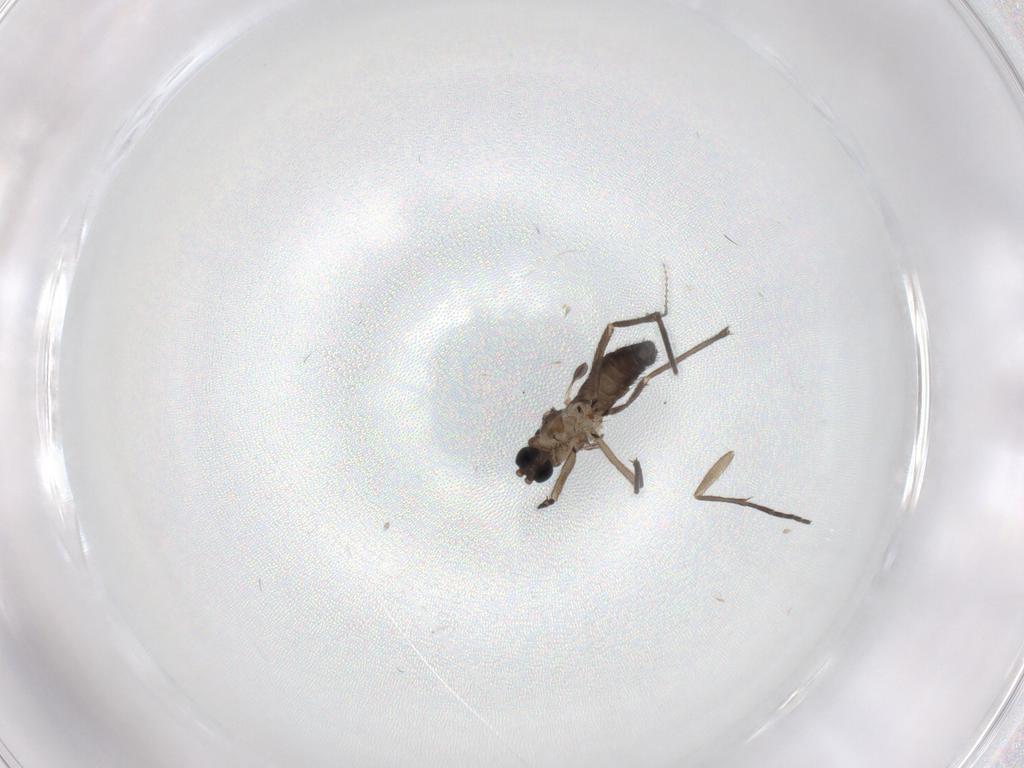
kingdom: Animalia
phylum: Arthropoda
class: Insecta
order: Diptera
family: Sciaridae
